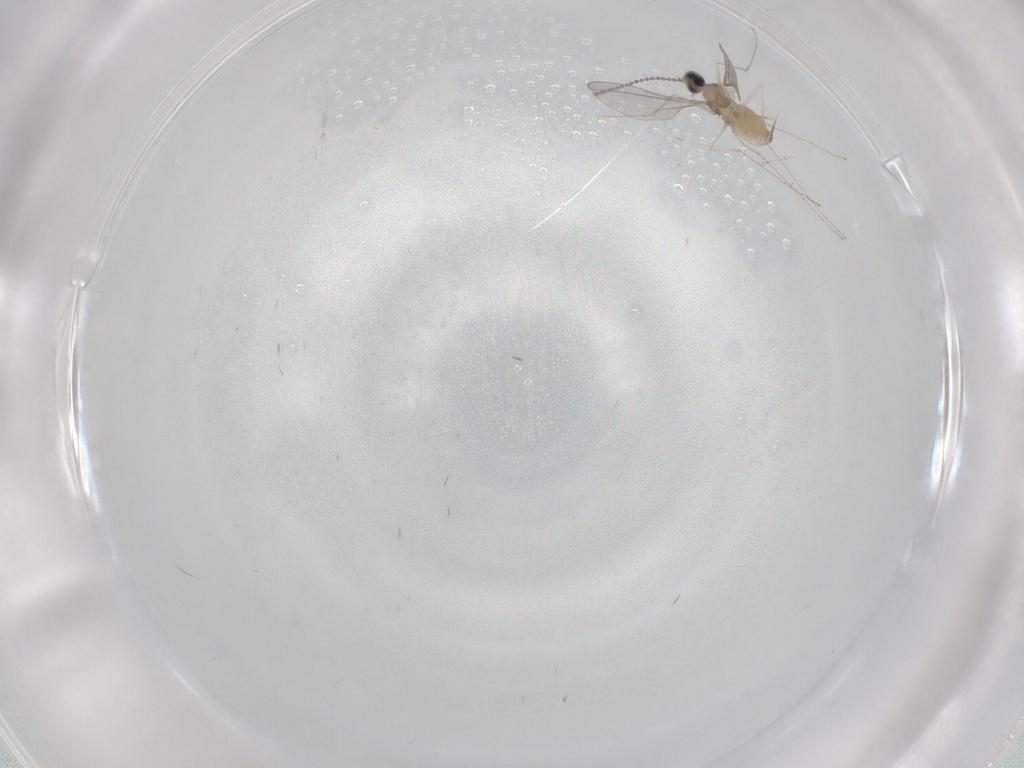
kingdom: Animalia
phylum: Arthropoda
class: Insecta
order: Diptera
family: Cecidomyiidae
